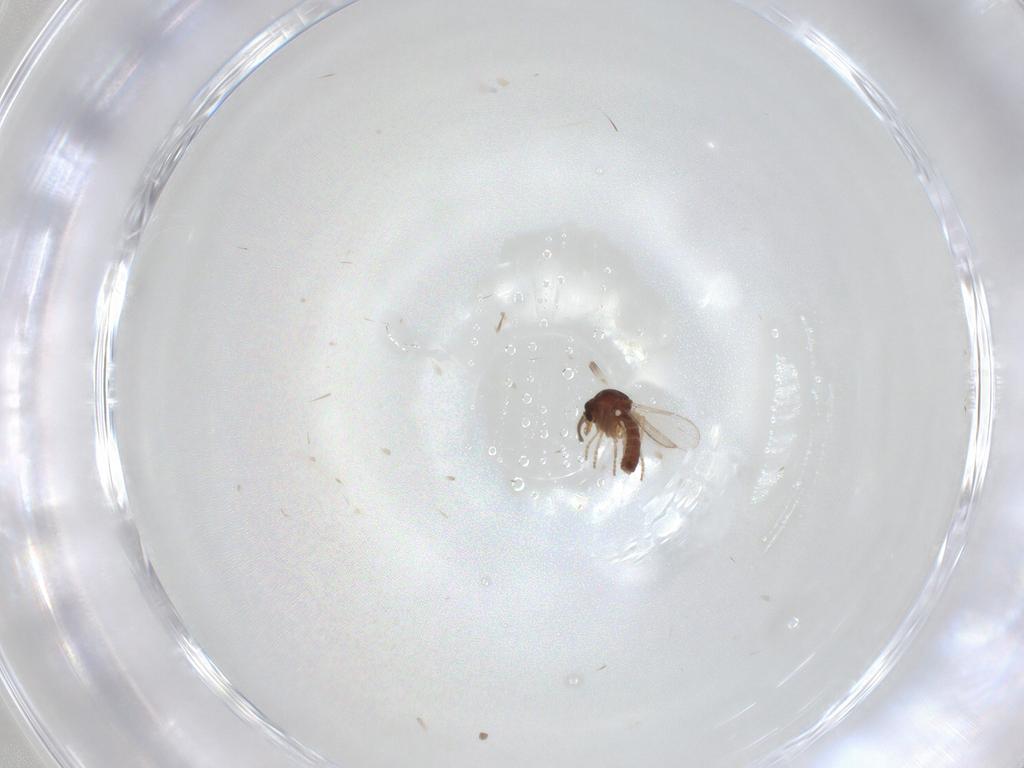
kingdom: Animalia
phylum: Arthropoda
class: Insecta
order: Diptera
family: Ceratopogonidae
